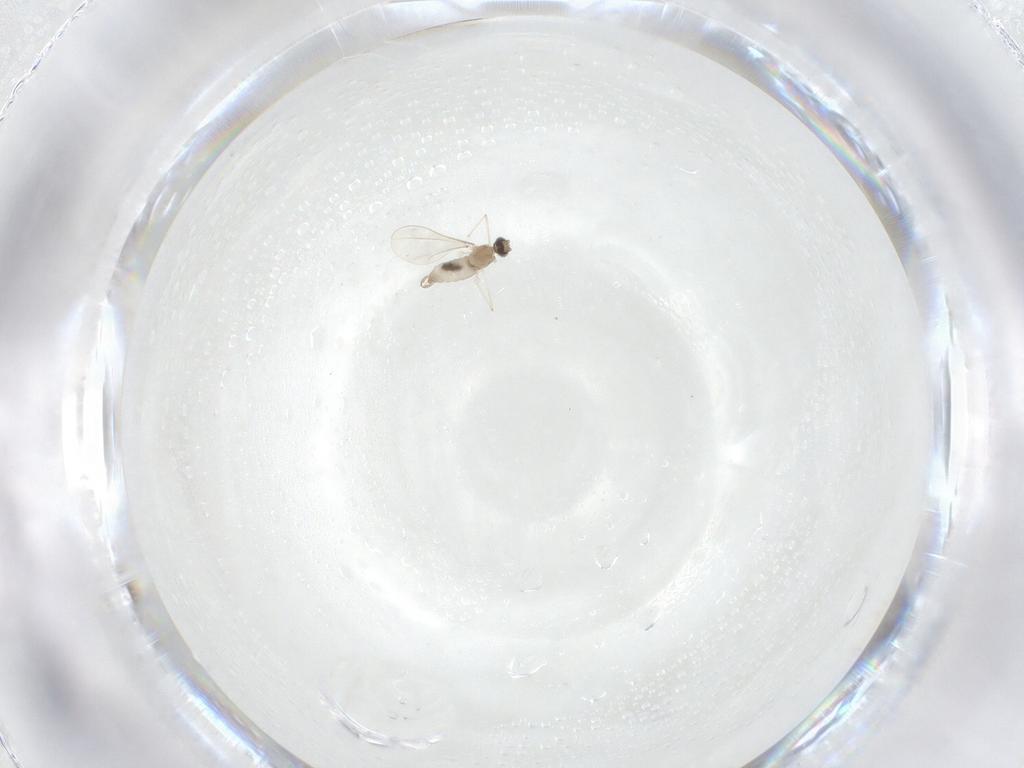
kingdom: Animalia
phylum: Arthropoda
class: Insecta
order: Diptera
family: Cecidomyiidae
